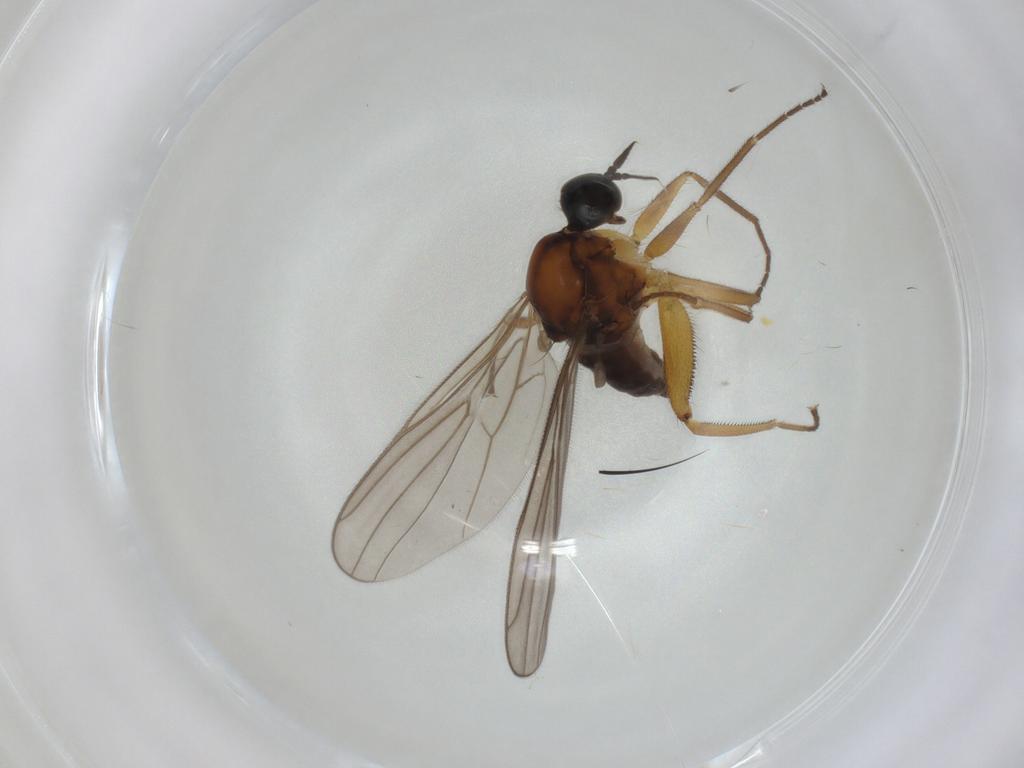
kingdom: Animalia
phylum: Arthropoda
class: Insecta
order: Diptera
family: Hybotidae
